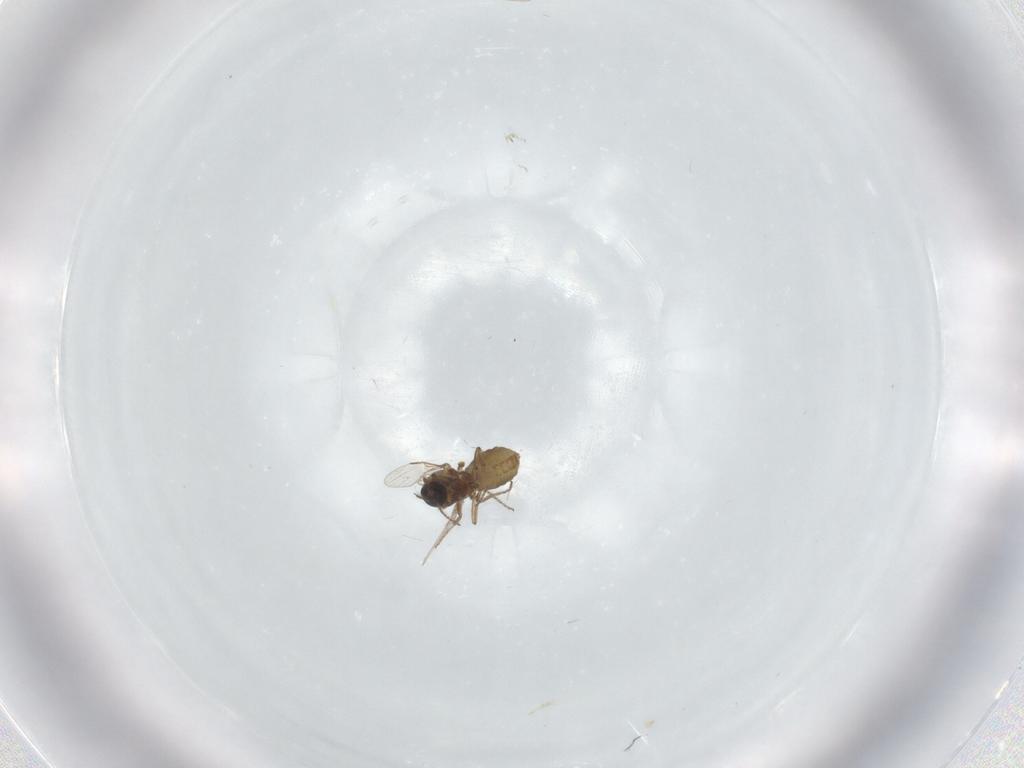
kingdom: Animalia
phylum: Arthropoda
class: Insecta
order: Diptera
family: Ceratopogonidae
